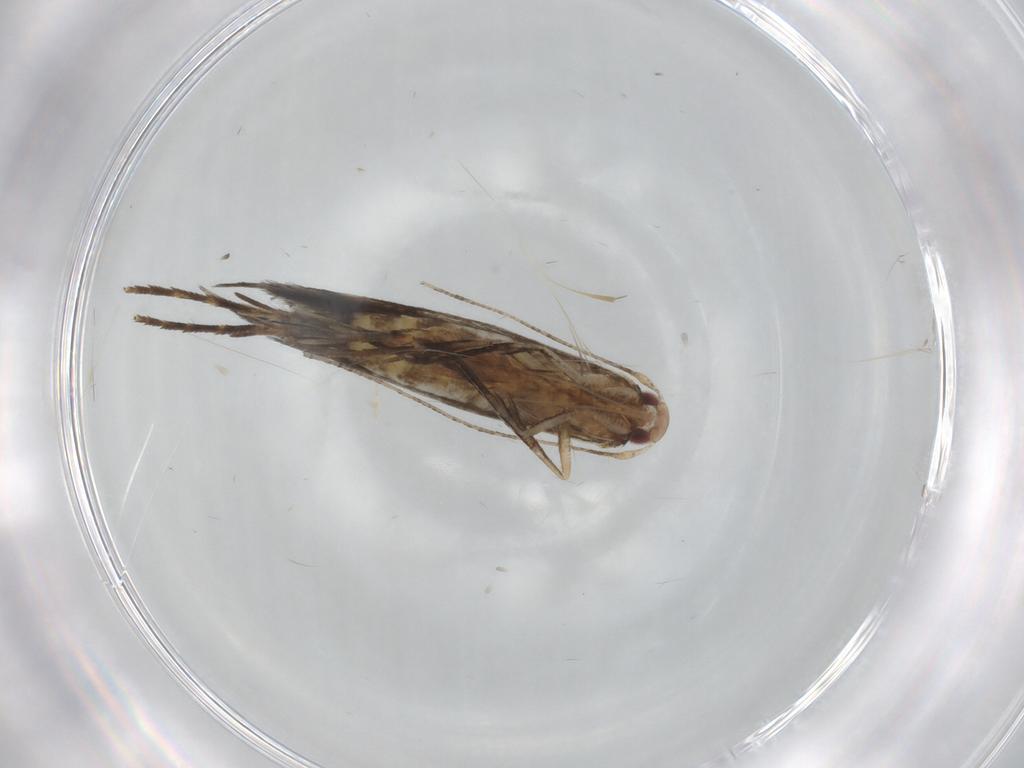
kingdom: Animalia
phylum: Arthropoda
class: Insecta
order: Lepidoptera
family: Cosmopterigidae
